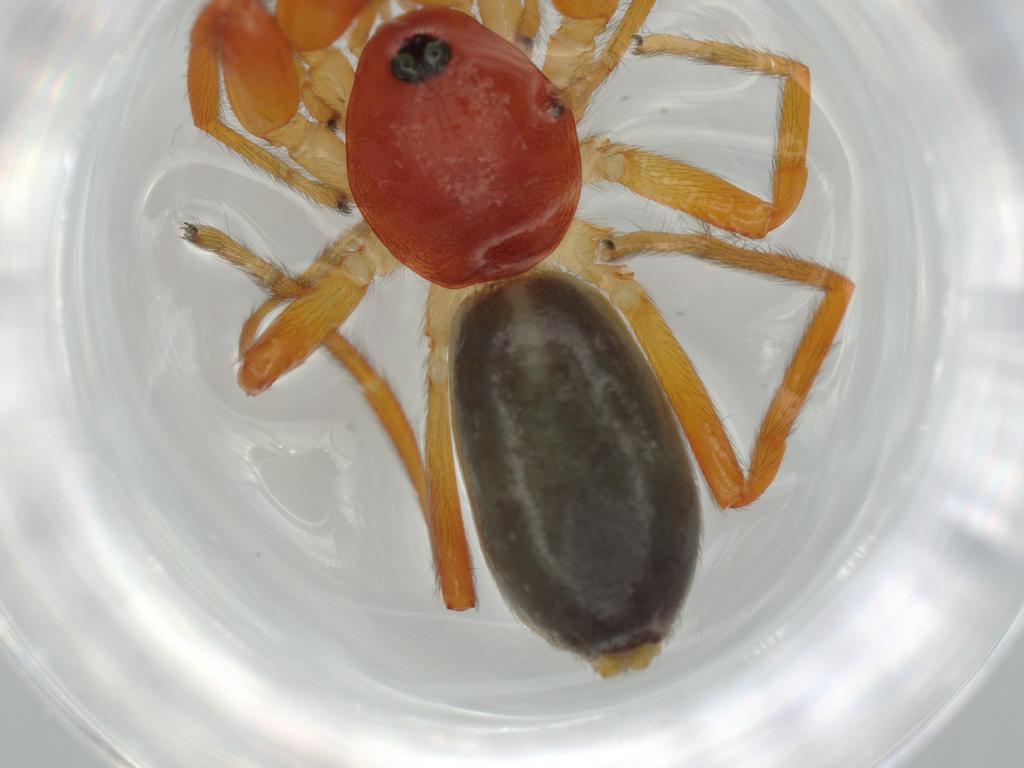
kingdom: Animalia
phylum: Arthropoda
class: Arachnida
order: Araneae
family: Caponiidae
